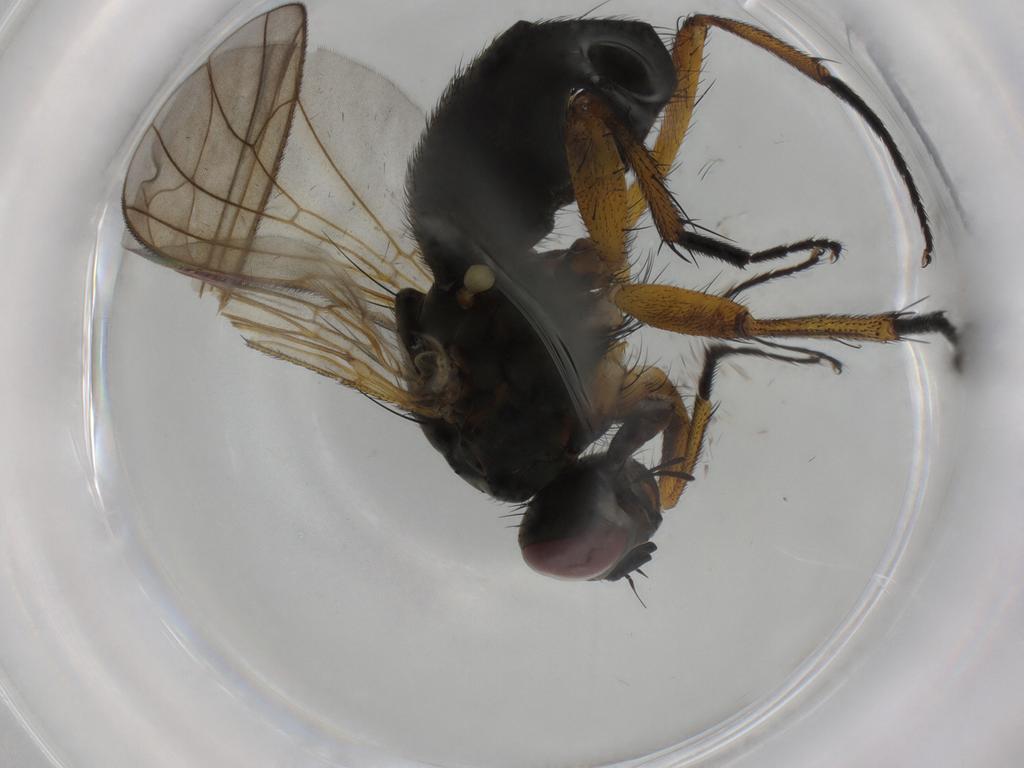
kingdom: Animalia
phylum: Arthropoda
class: Insecta
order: Diptera
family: Muscidae
